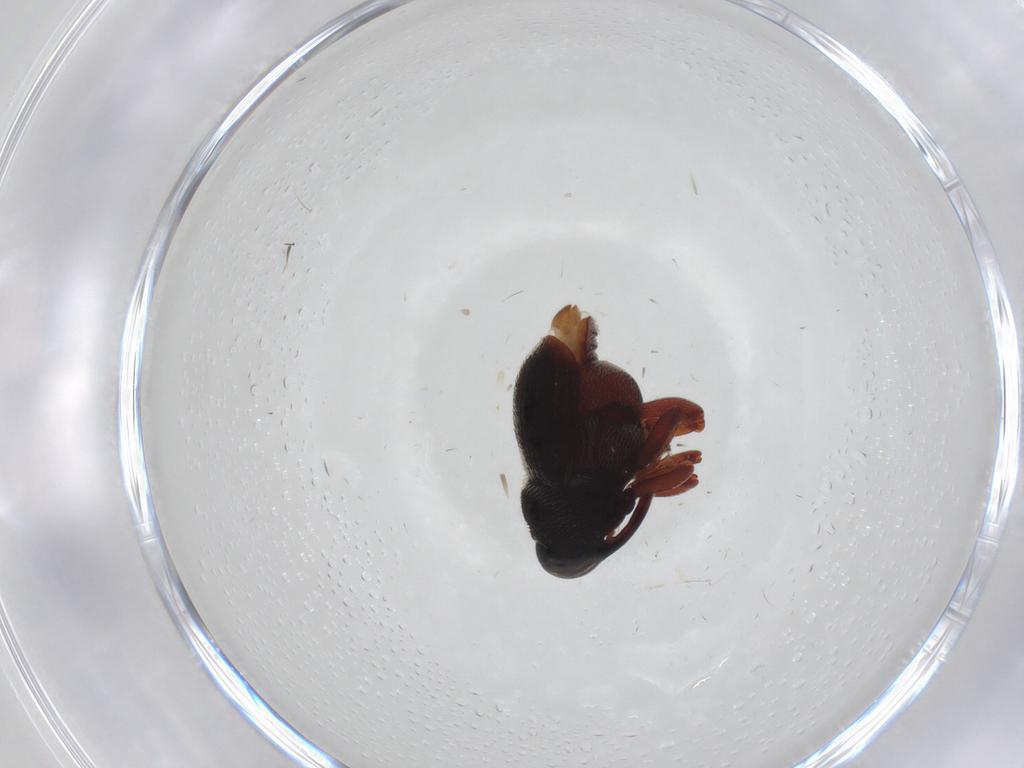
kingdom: Animalia
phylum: Arthropoda
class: Insecta
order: Coleoptera
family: Curculionidae
